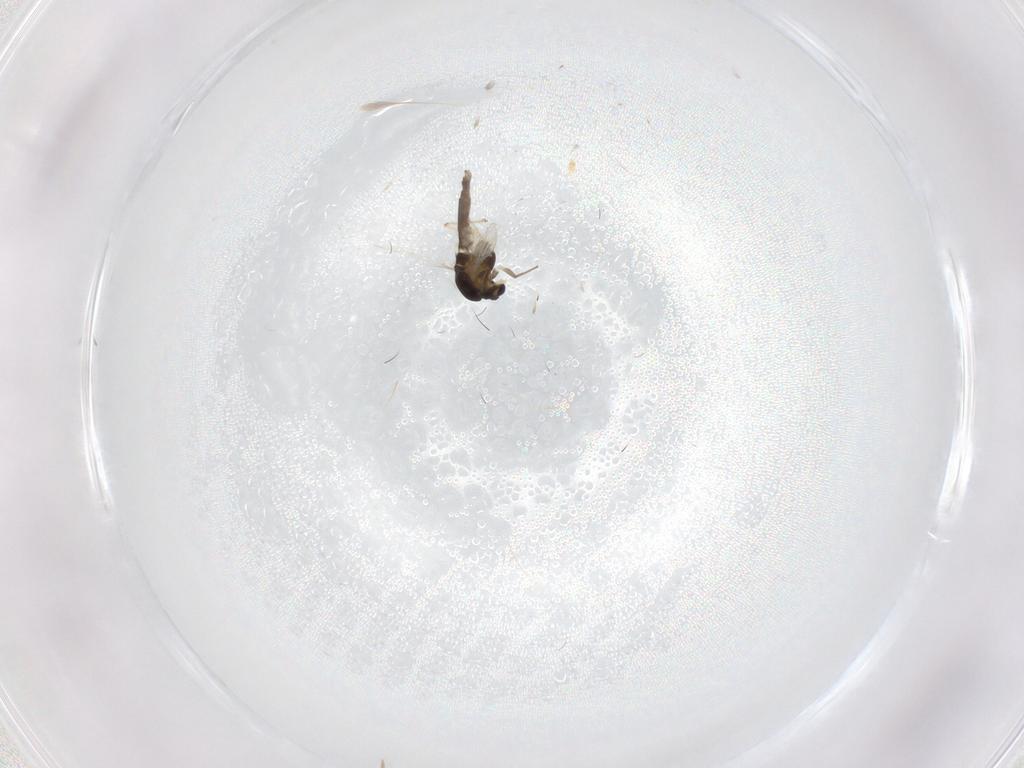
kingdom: Animalia
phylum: Arthropoda
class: Insecta
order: Diptera
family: Chironomidae
